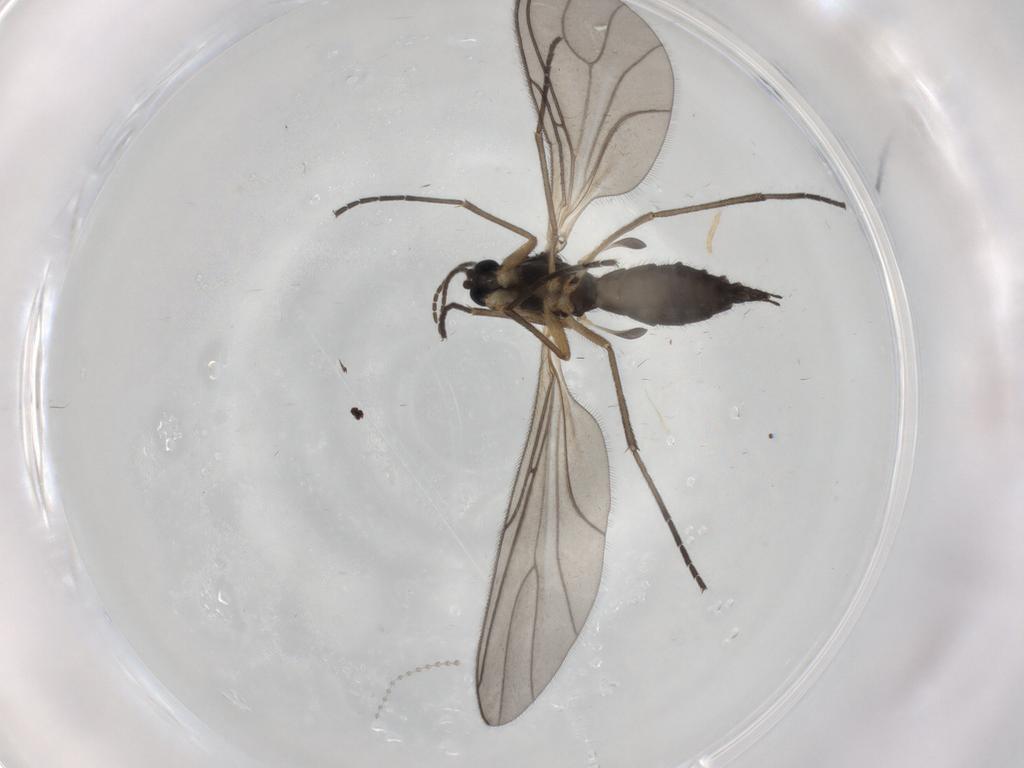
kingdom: Animalia
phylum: Arthropoda
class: Insecta
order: Diptera
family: Sciaridae
